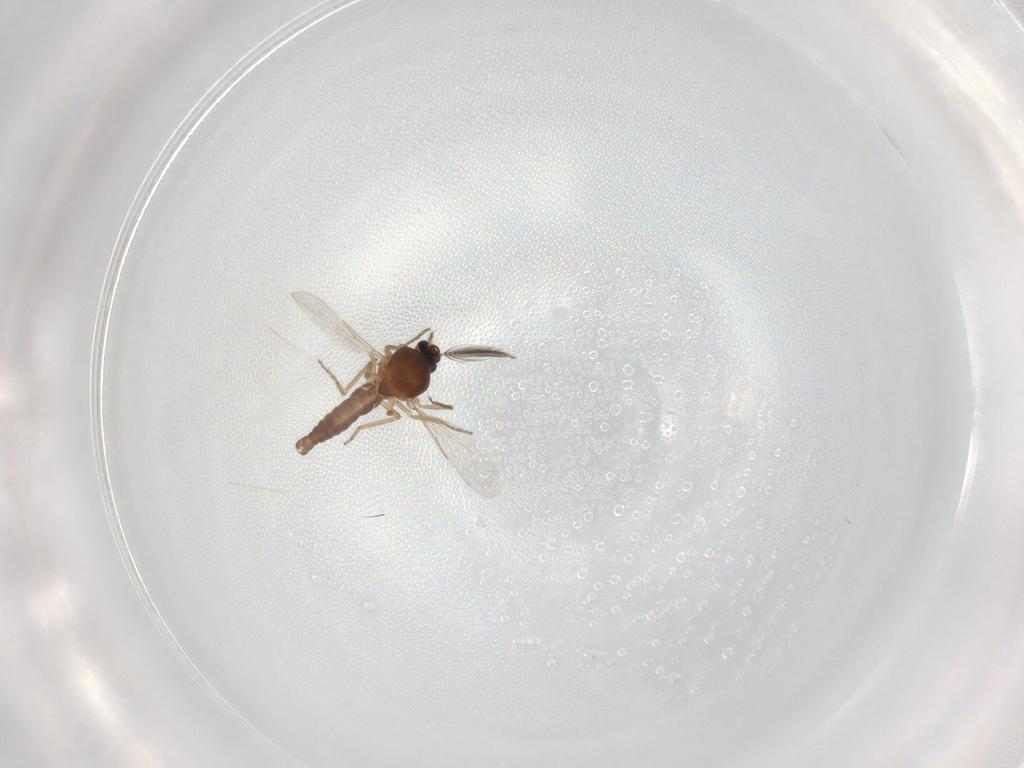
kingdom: Animalia
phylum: Arthropoda
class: Insecta
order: Diptera
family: Ceratopogonidae
